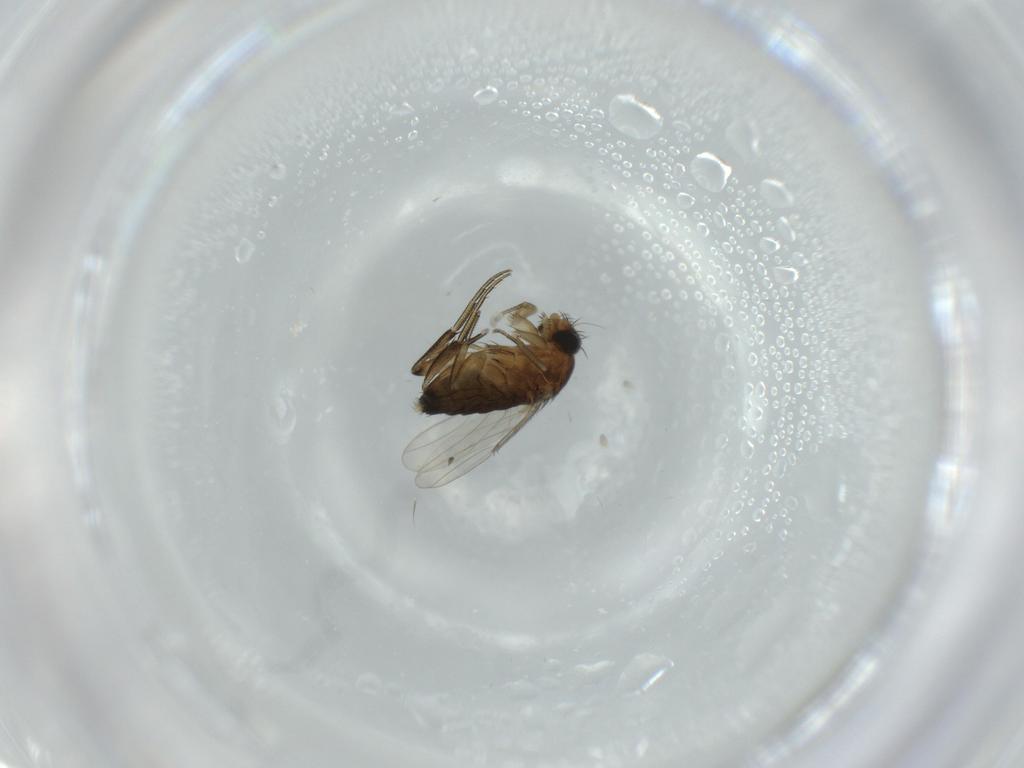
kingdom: Animalia
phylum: Arthropoda
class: Insecta
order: Diptera
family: Phoridae
